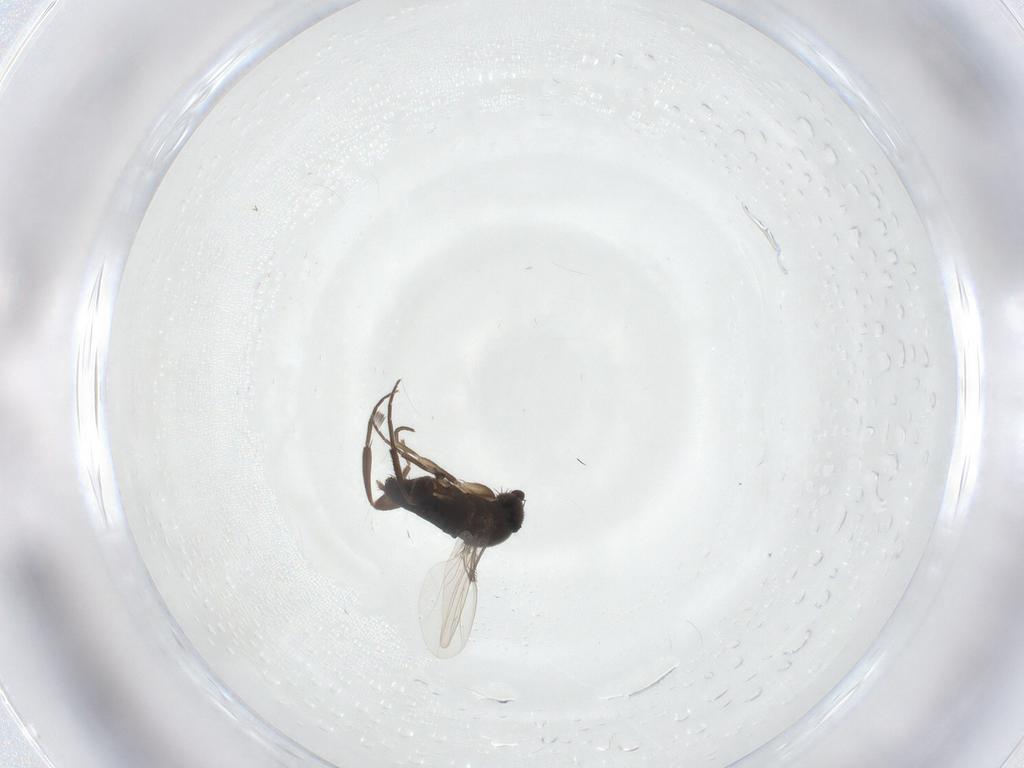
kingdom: Animalia
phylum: Arthropoda
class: Insecta
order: Diptera
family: Phoridae
